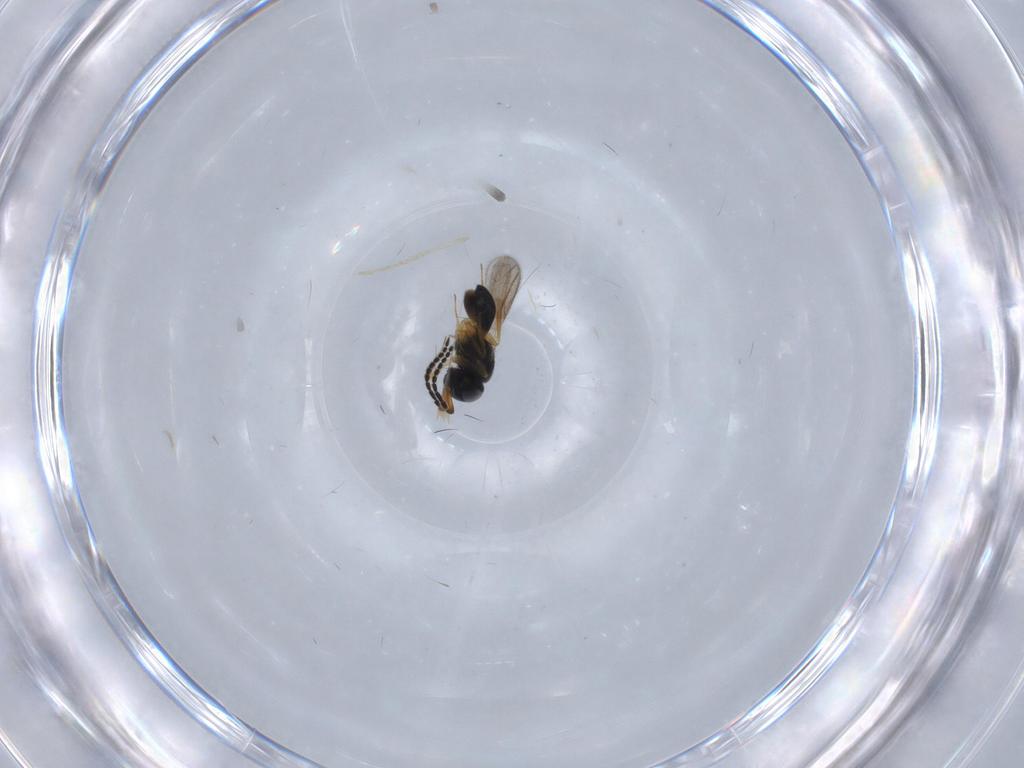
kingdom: Animalia
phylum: Arthropoda
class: Insecta
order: Hymenoptera
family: Scelionidae
